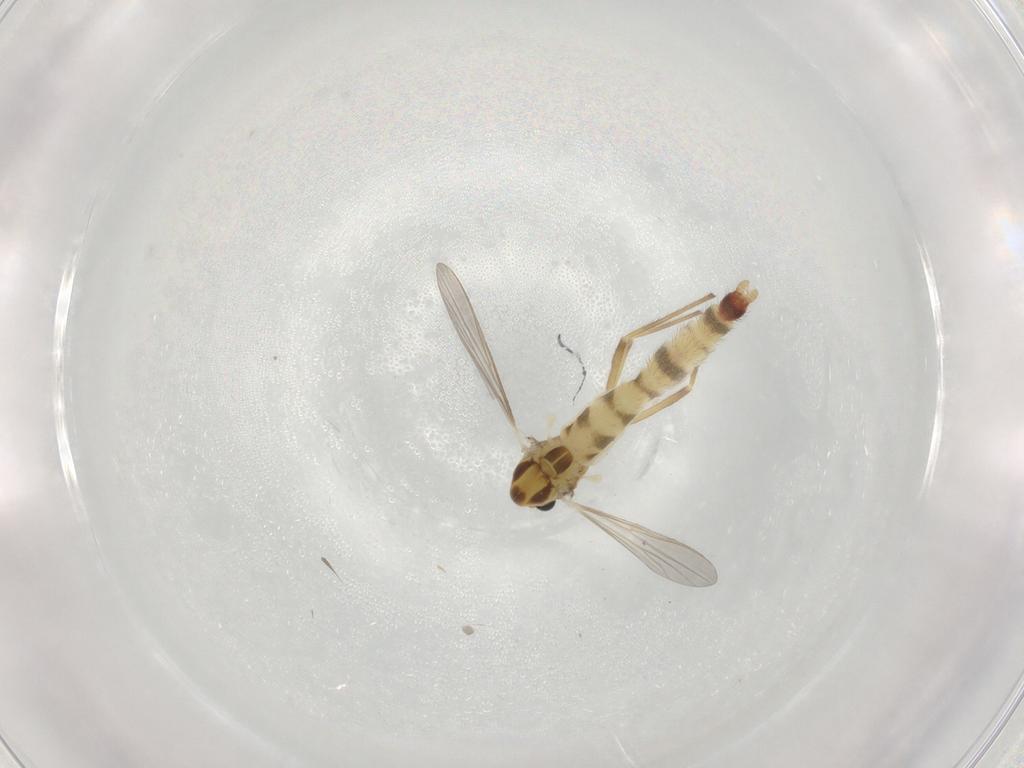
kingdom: Animalia
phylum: Arthropoda
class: Insecta
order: Diptera
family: Chironomidae
